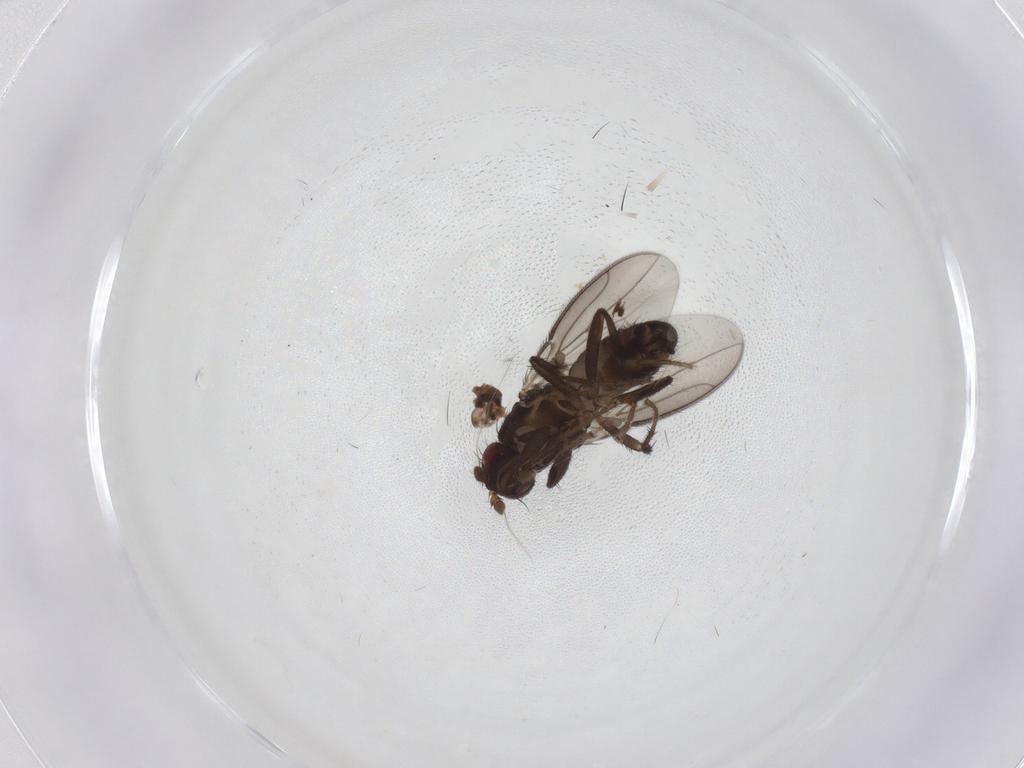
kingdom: Animalia
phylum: Arthropoda
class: Insecta
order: Diptera
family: Sphaeroceridae
